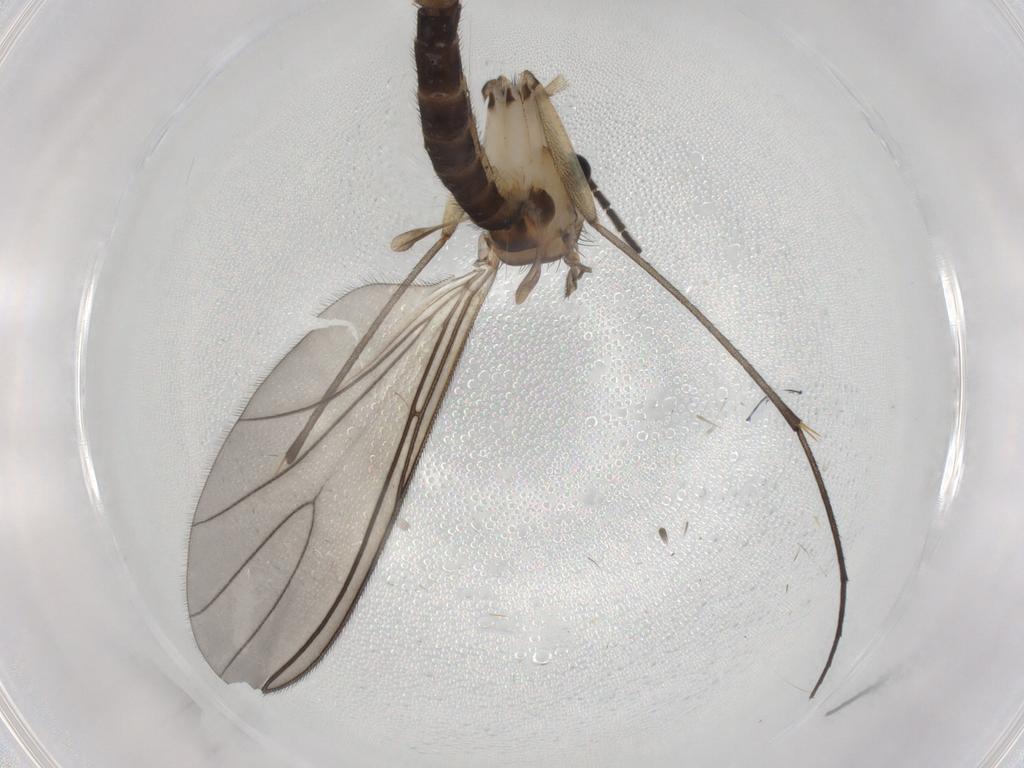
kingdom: Animalia
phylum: Arthropoda
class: Insecta
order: Diptera
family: Sciaridae
